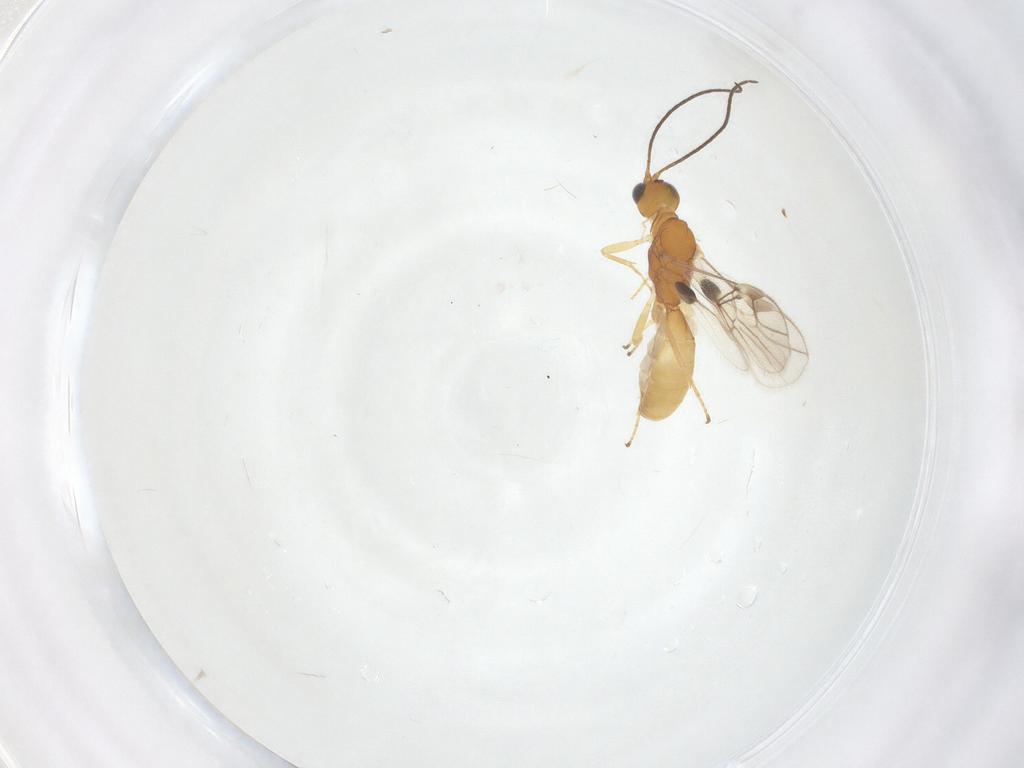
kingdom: Animalia
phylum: Arthropoda
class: Insecta
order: Hymenoptera
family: Braconidae
